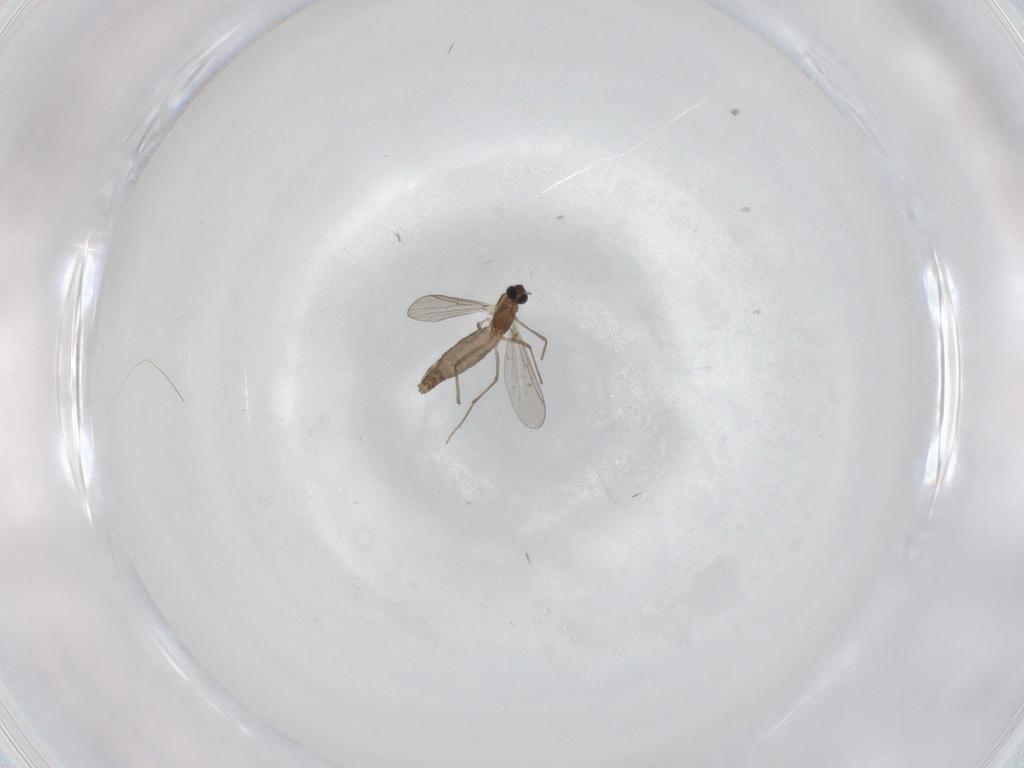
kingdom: Animalia
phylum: Arthropoda
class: Insecta
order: Diptera
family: Chironomidae
